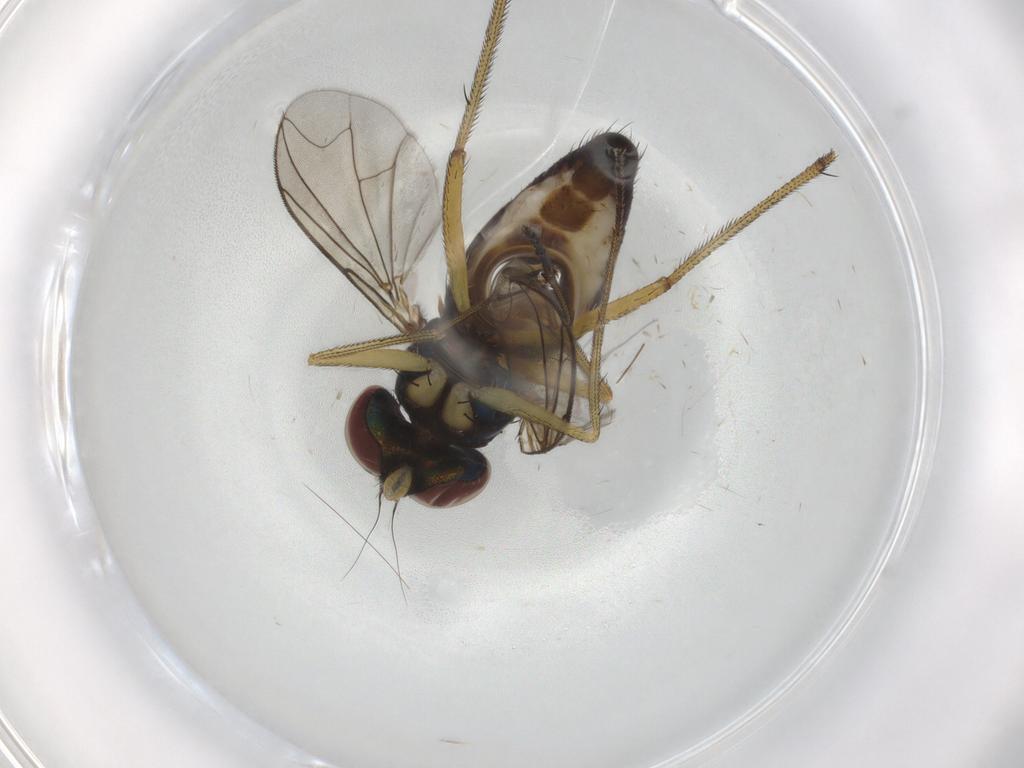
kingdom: Animalia
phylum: Arthropoda
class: Insecta
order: Diptera
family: Dolichopodidae
